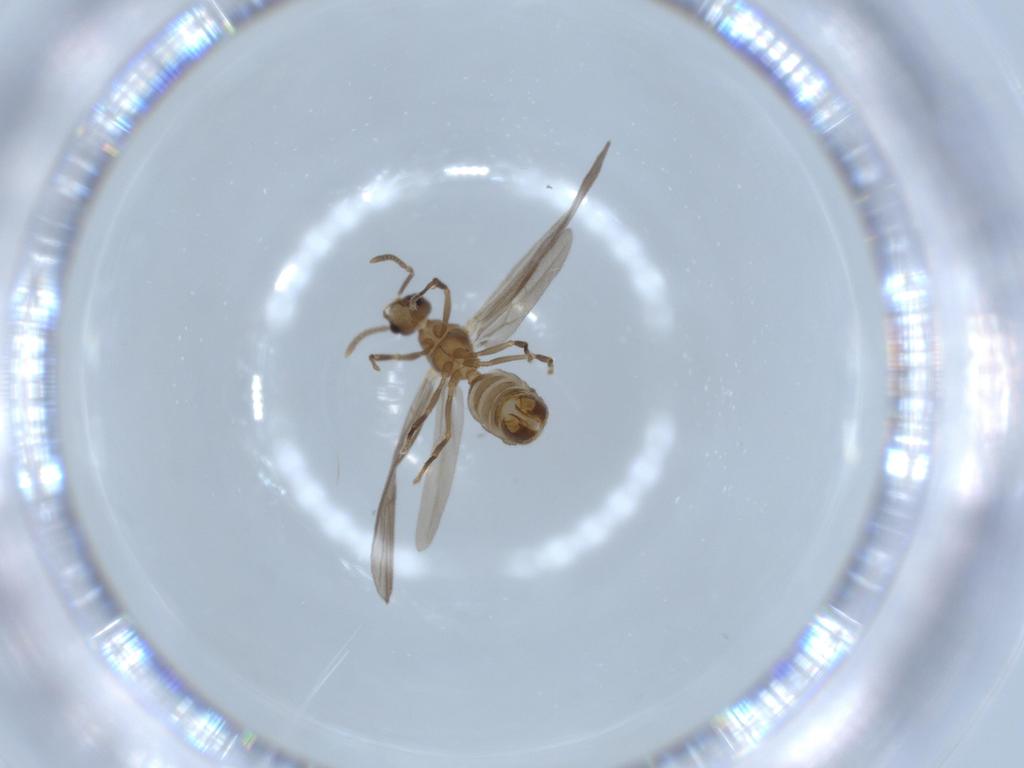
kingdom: Animalia
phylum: Arthropoda
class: Insecta
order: Hymenoptera
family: Formicidae
